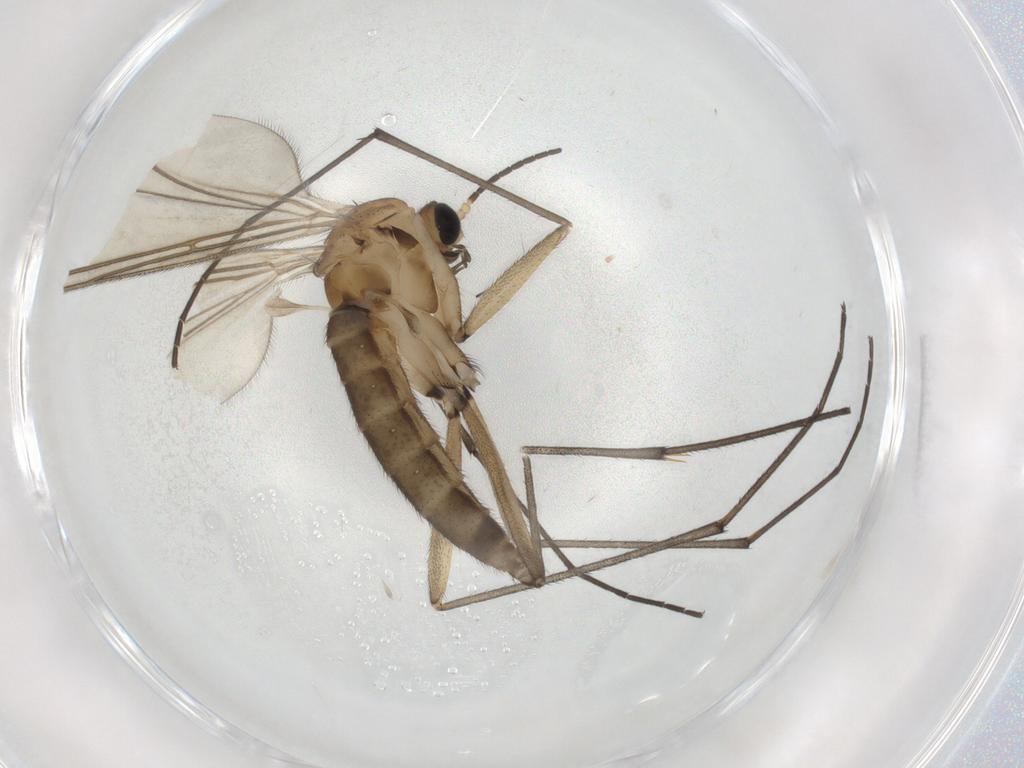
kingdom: Animalia
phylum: Arthropoda
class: Insecta
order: Diptera
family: Sciaridae
